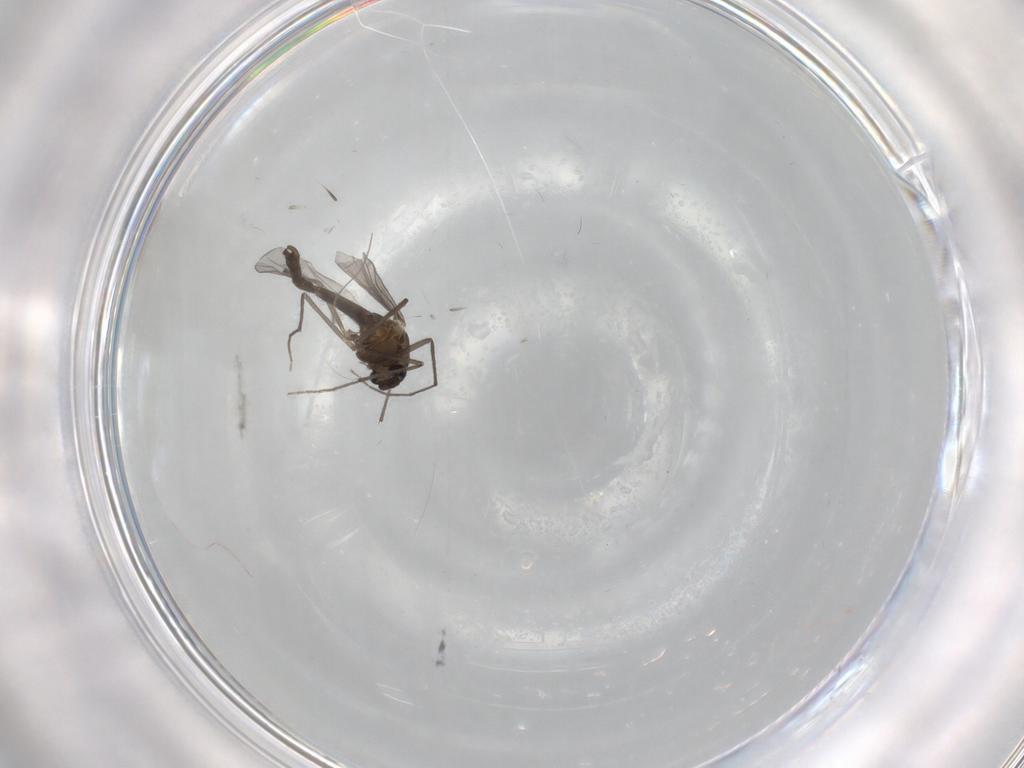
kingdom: Animalia
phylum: Arthropoda
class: Insecta
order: Diptera
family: Chironomidae
